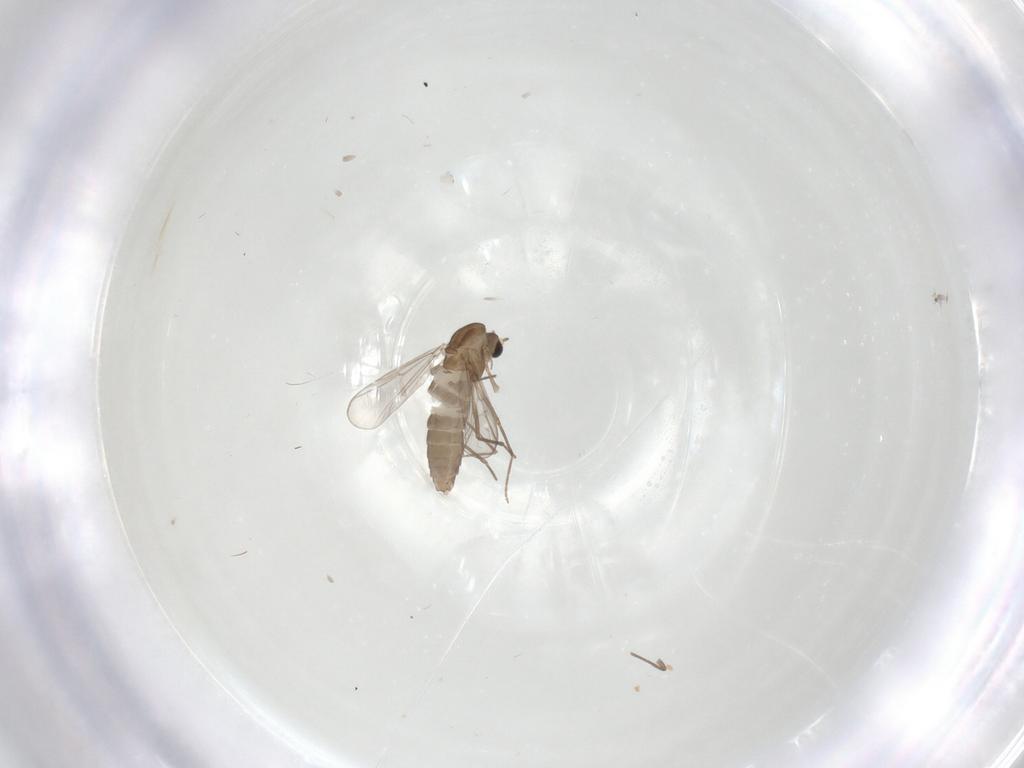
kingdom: Animalia
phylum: Arthropoda
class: Insecta
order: Diptera
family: Chironomidae
